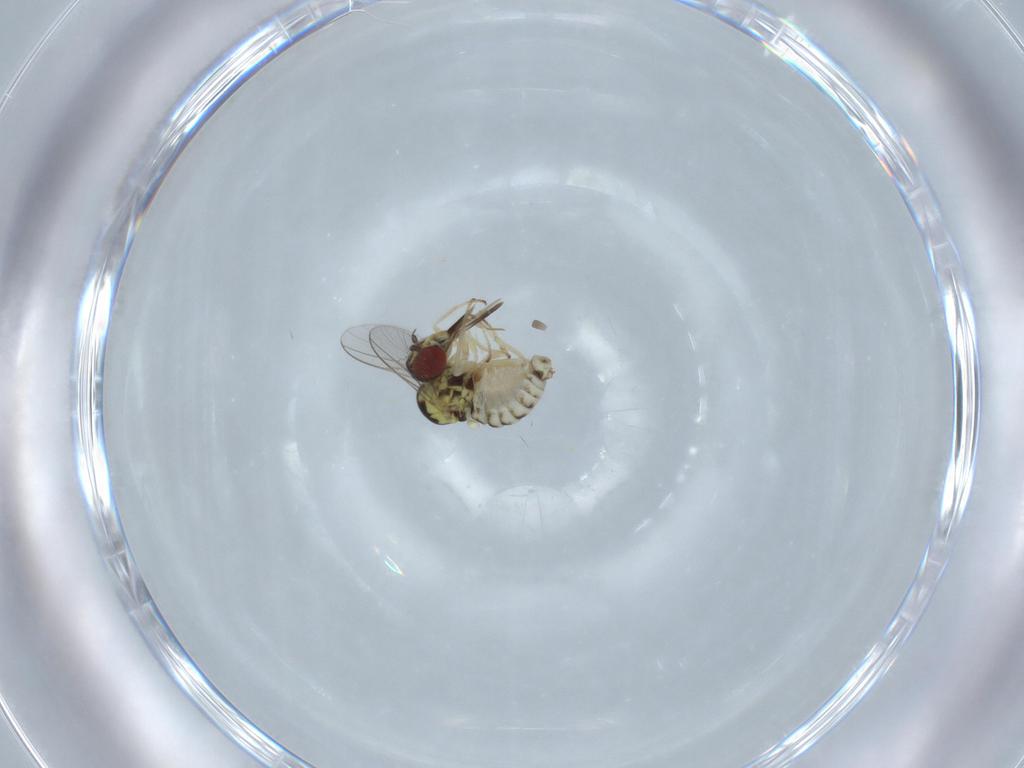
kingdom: Animalia
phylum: Arthropoda
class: Insecta
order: Diptera
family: Bombyliidae
